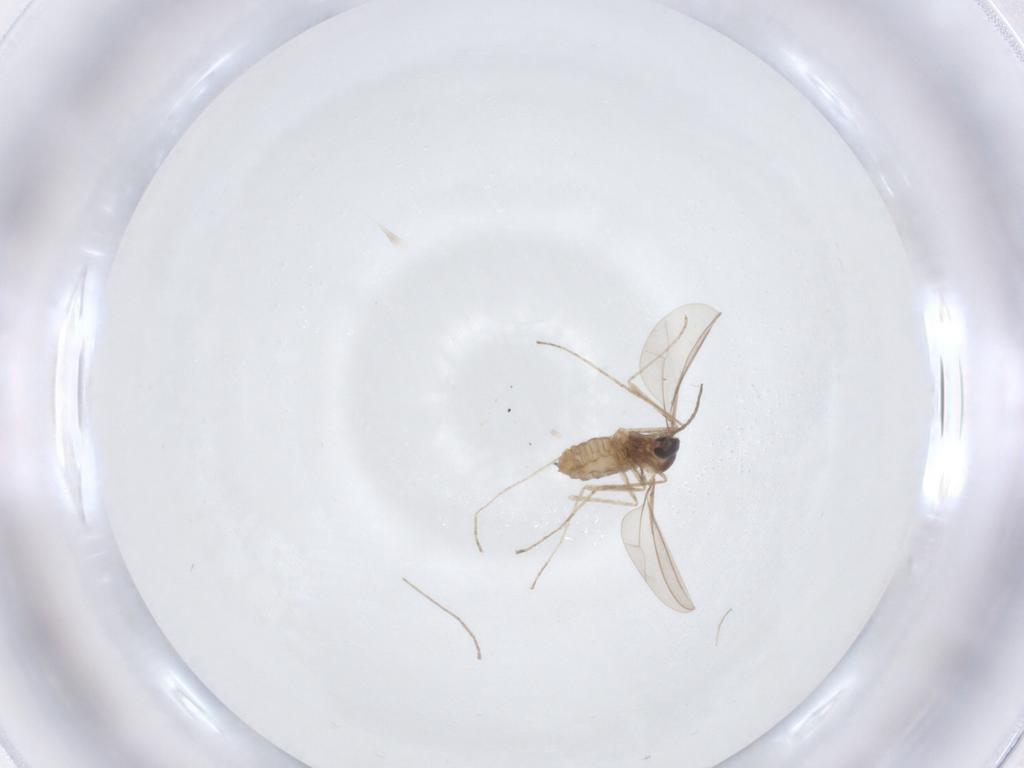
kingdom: Animalia
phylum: Arthropoda
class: Insecta
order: Diptera
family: Cecidomyiidae
